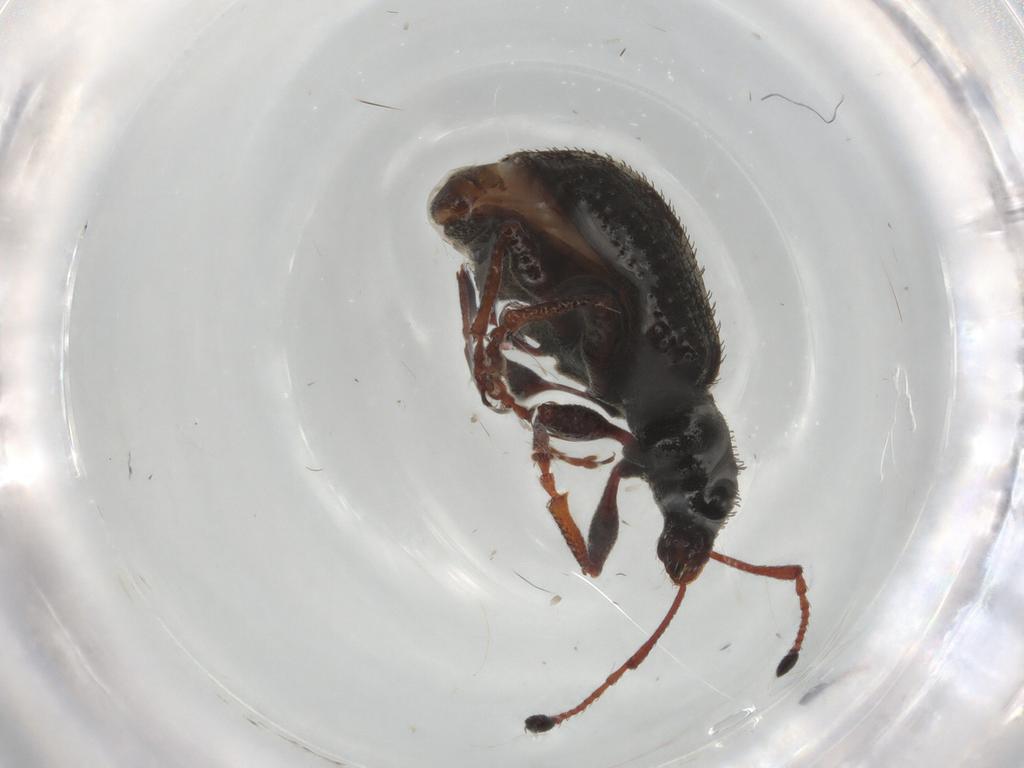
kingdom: Animalia
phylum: Arthropoda
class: Insecta
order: Coleoptera
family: Curculionidae
